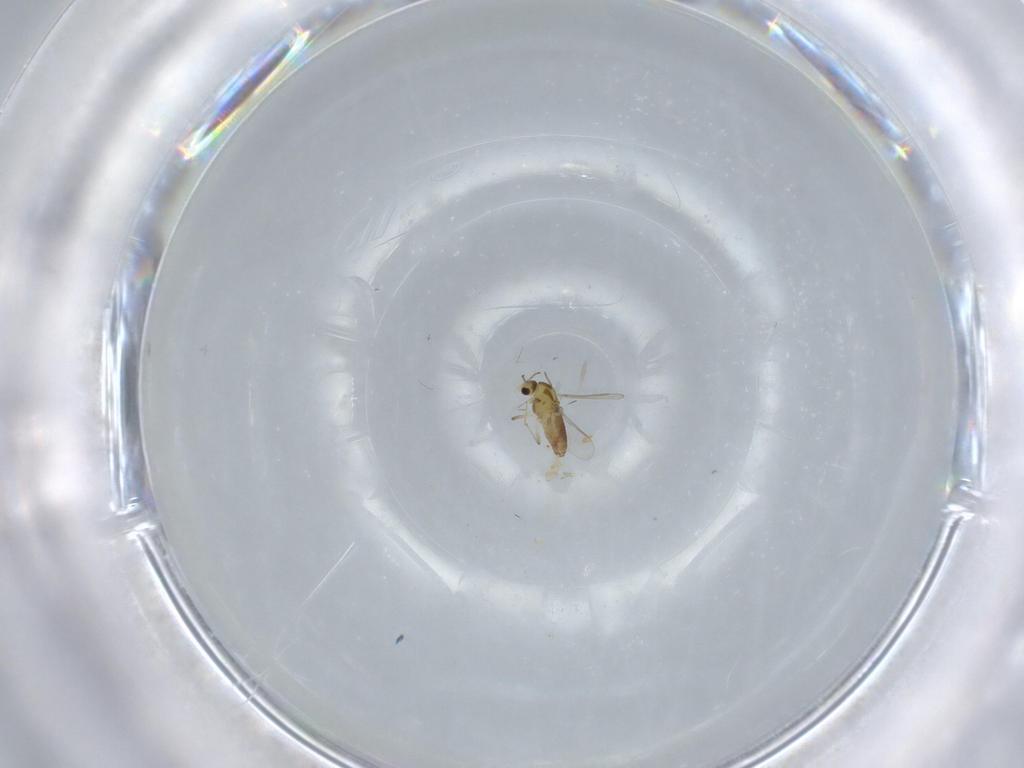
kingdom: Animalia
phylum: Arthropoda
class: Insecta
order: Diptera
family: Chironomidae
